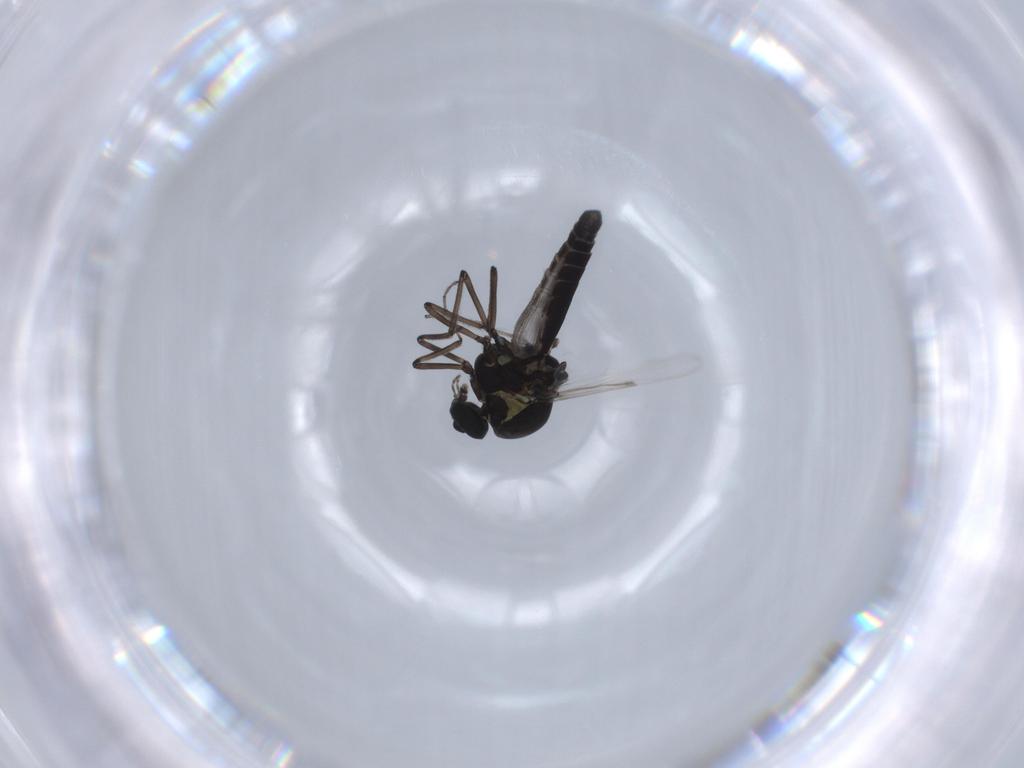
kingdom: Animalia
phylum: Arthropoda
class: Insecta
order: Diptera
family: Ceratopogonidae
